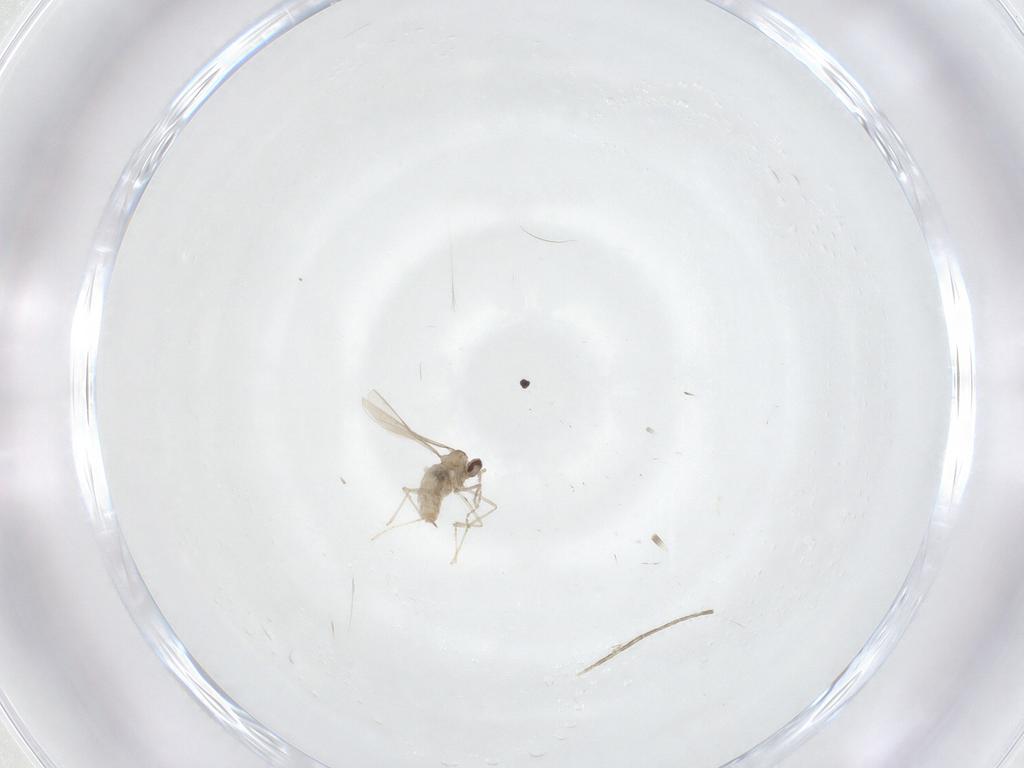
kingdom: Animalia
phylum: Arthropoda
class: Insecta
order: Diptera
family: Cecidomyiidae
